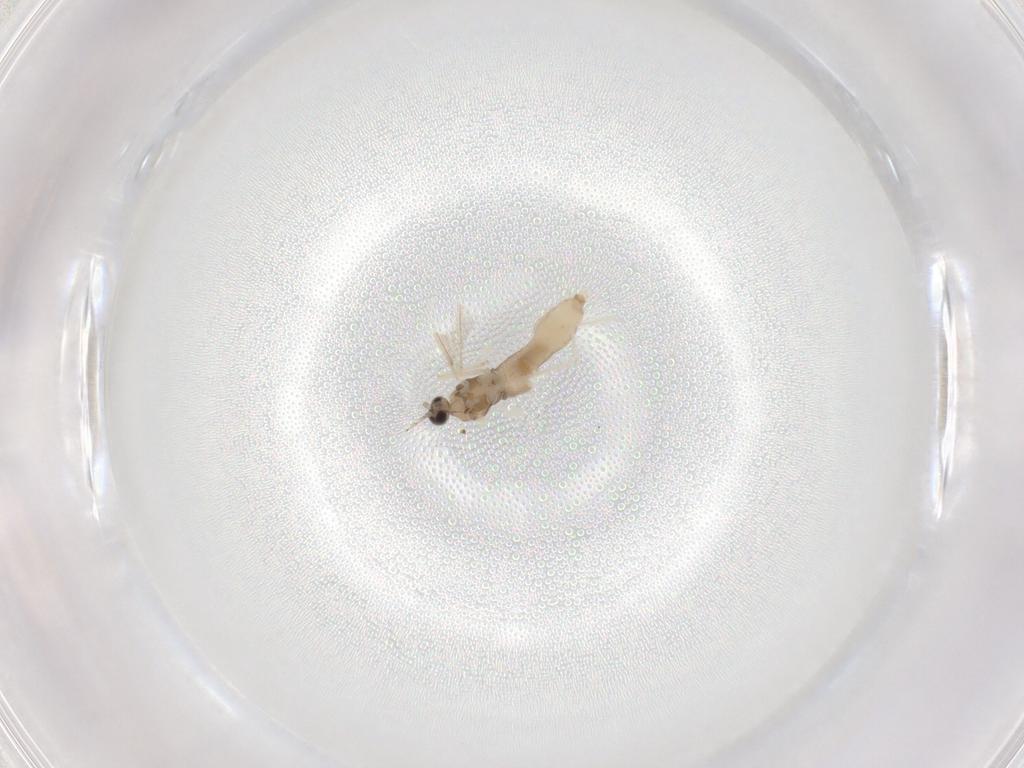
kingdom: Animalia
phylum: Arthropoda
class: Insecta
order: Diptera
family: Cecidomyiidae
